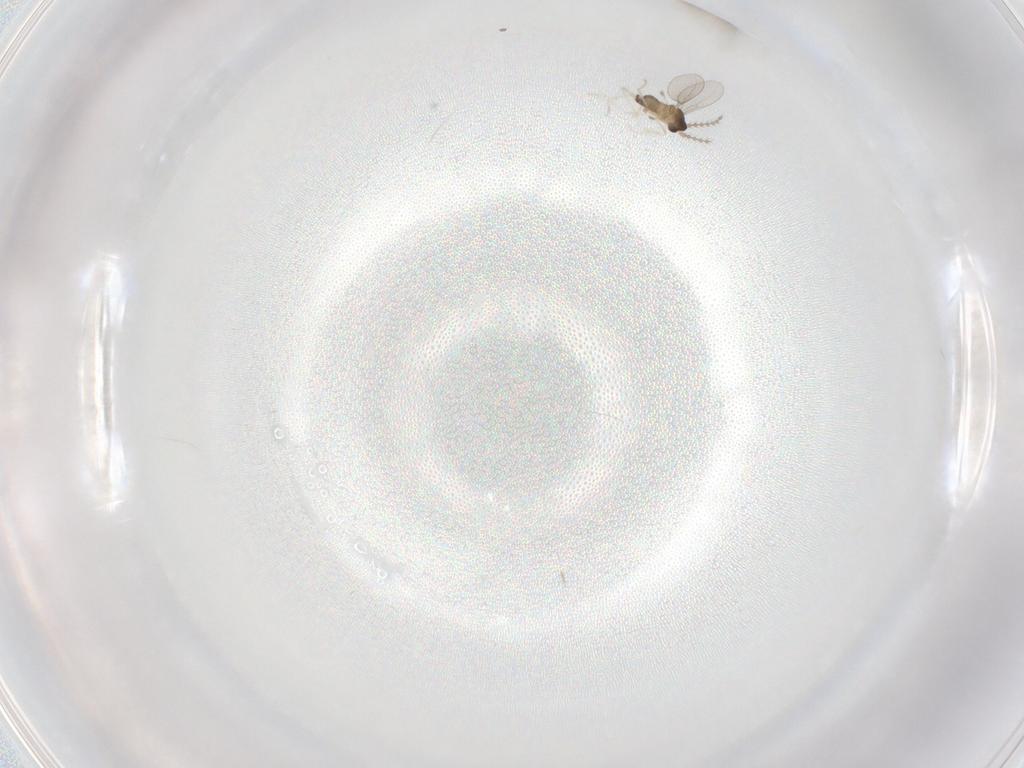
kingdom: Animalia
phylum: Arthropoda
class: Insecta
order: Diptera
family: Cecidomyiidae
